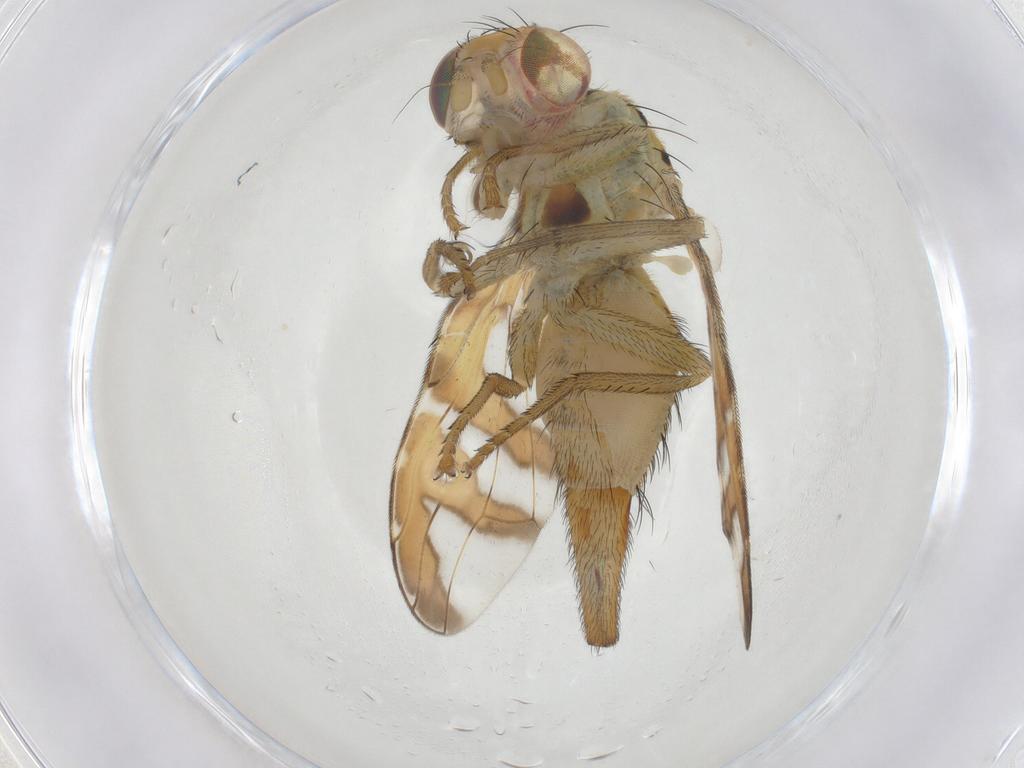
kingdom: Animalia
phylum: Arthropoda
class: Insecta
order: Diptera
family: Tephritidae
